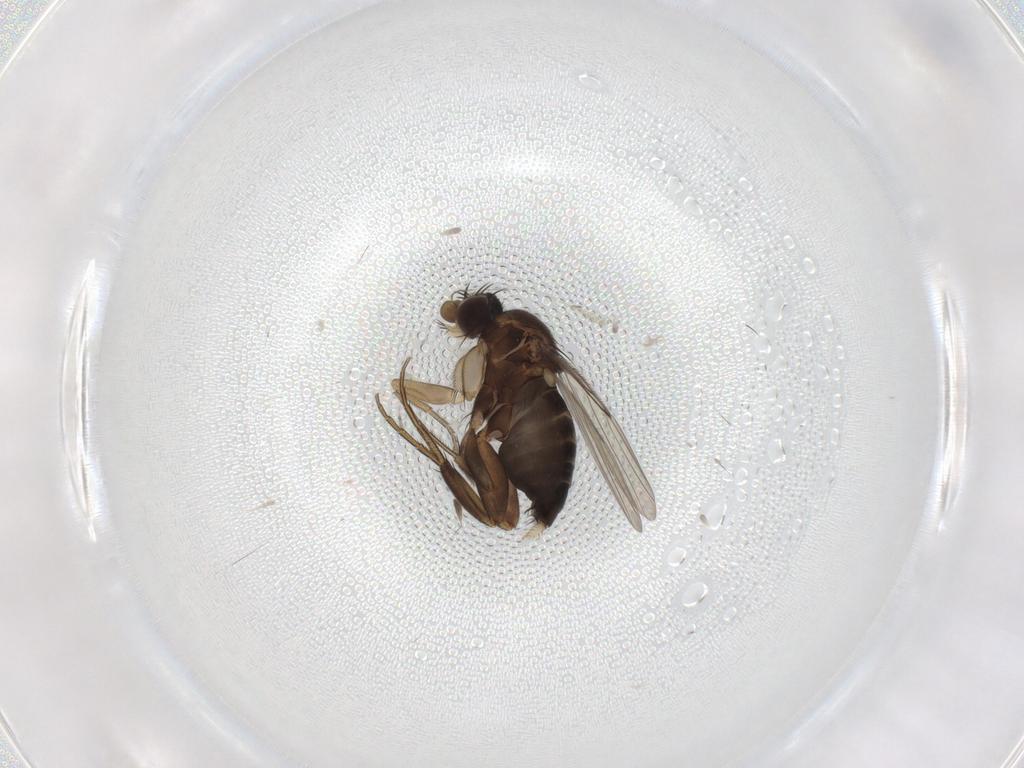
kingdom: Animalia
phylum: Arthropoda
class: Insecta
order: Diptera
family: Phoridae
